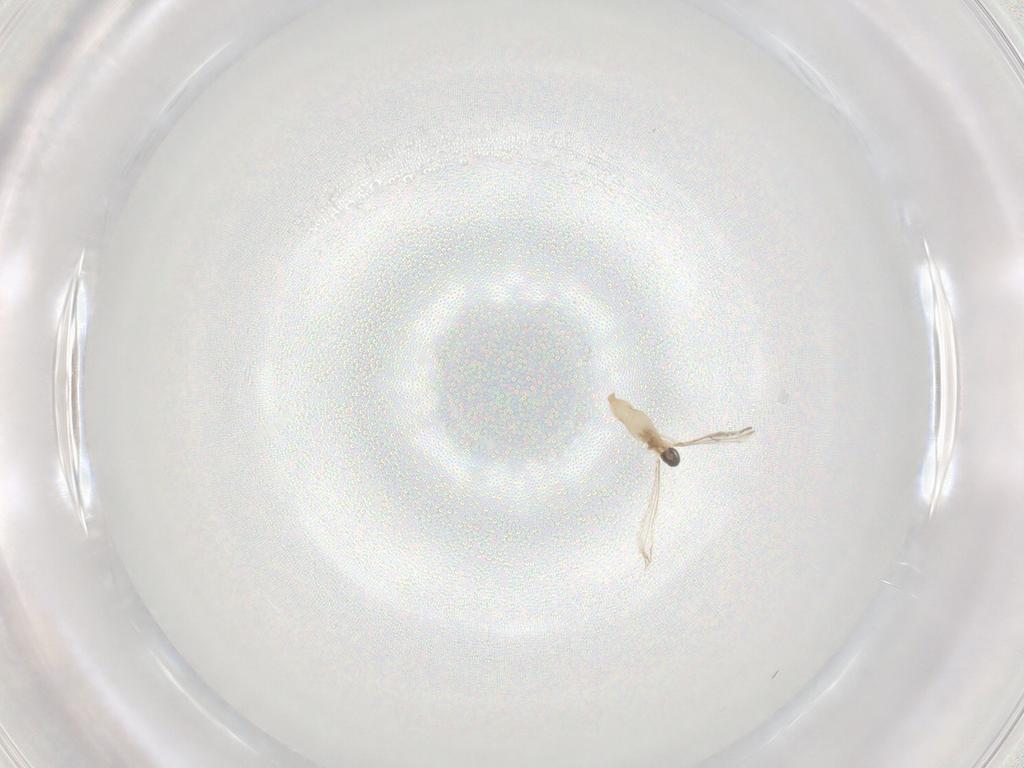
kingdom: Animalia
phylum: Arthropoda
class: Insecta
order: Diptera
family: Cecidomyiidae
